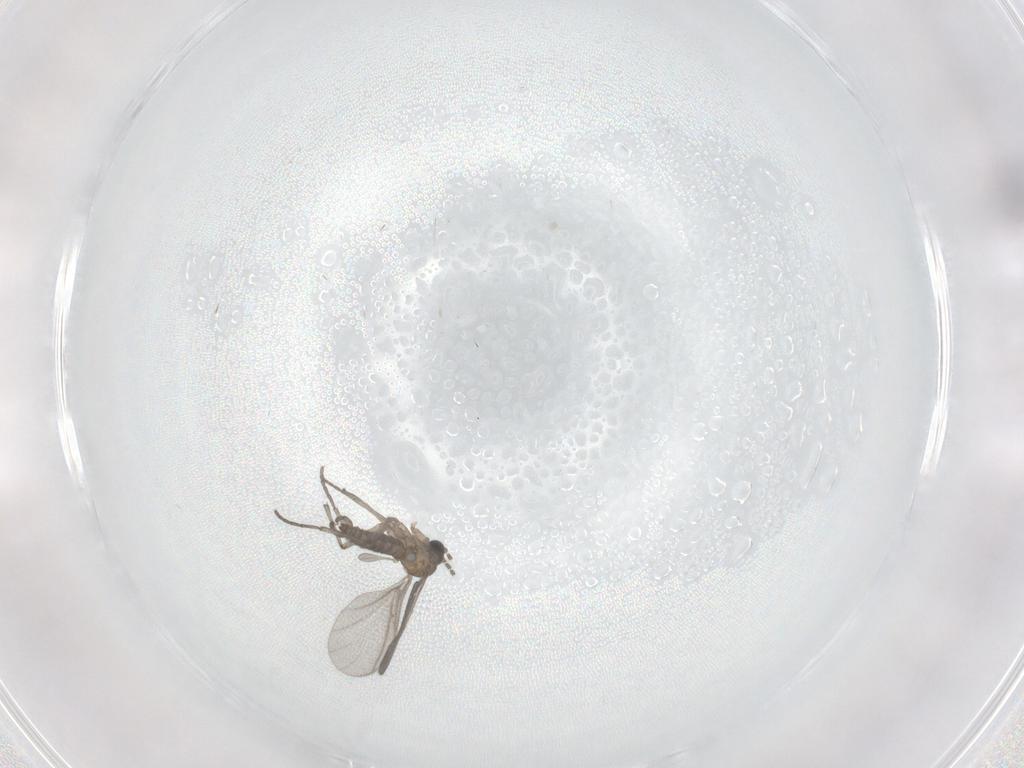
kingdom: Animalia
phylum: Arthropoda
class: Insecta
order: Diptera
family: Sciaridae
